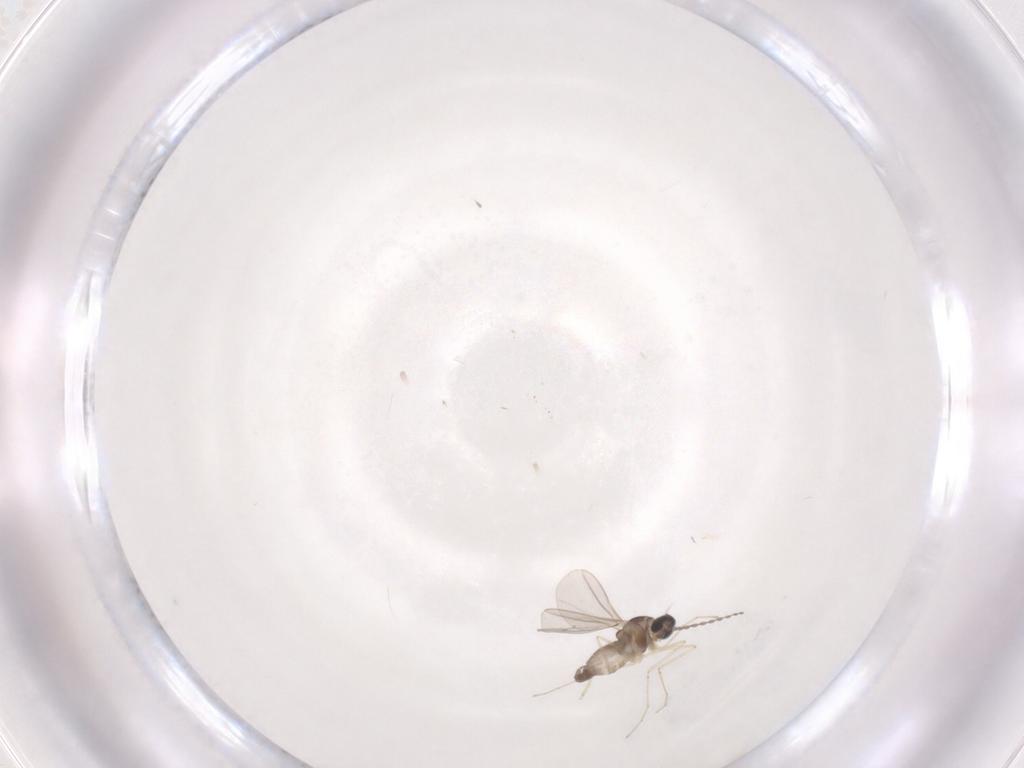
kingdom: Animalia
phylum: Arthropoda
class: Insecta
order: Diptera
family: Cecidomyiidae
